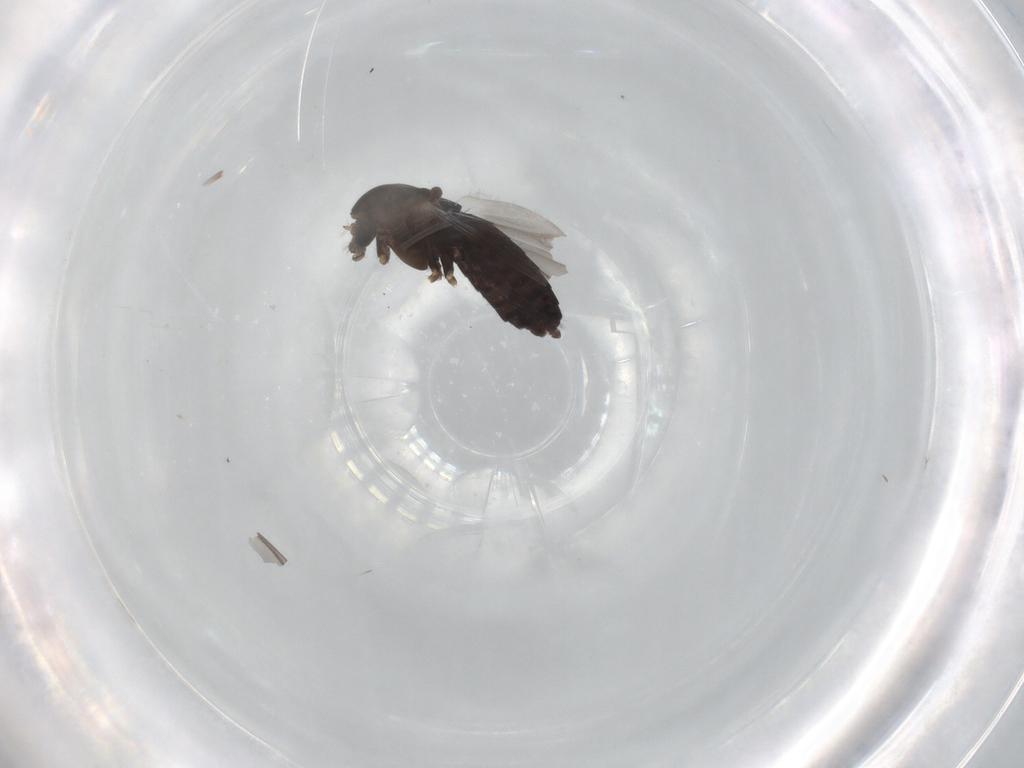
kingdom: Animalia
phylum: Arthropoda
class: Insecta
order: Diptera
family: Chironomidae
